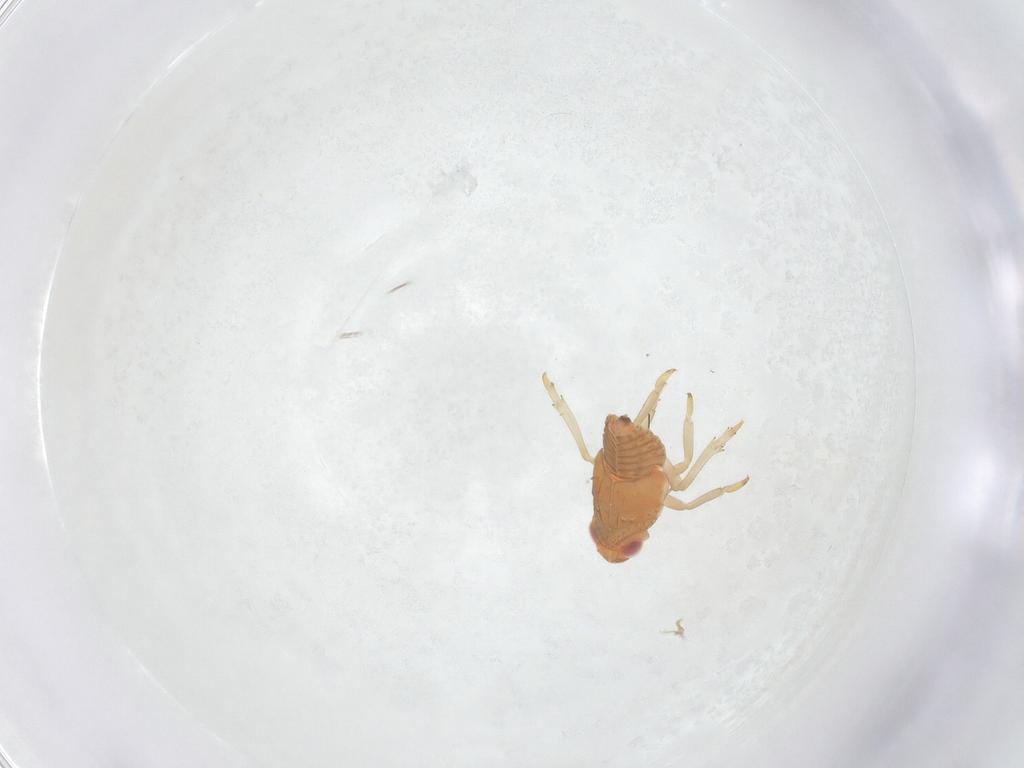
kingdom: Animalia
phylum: Arthropoda
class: Insecta
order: Hemiptera
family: Fulgoroidea_incertae_sedis
